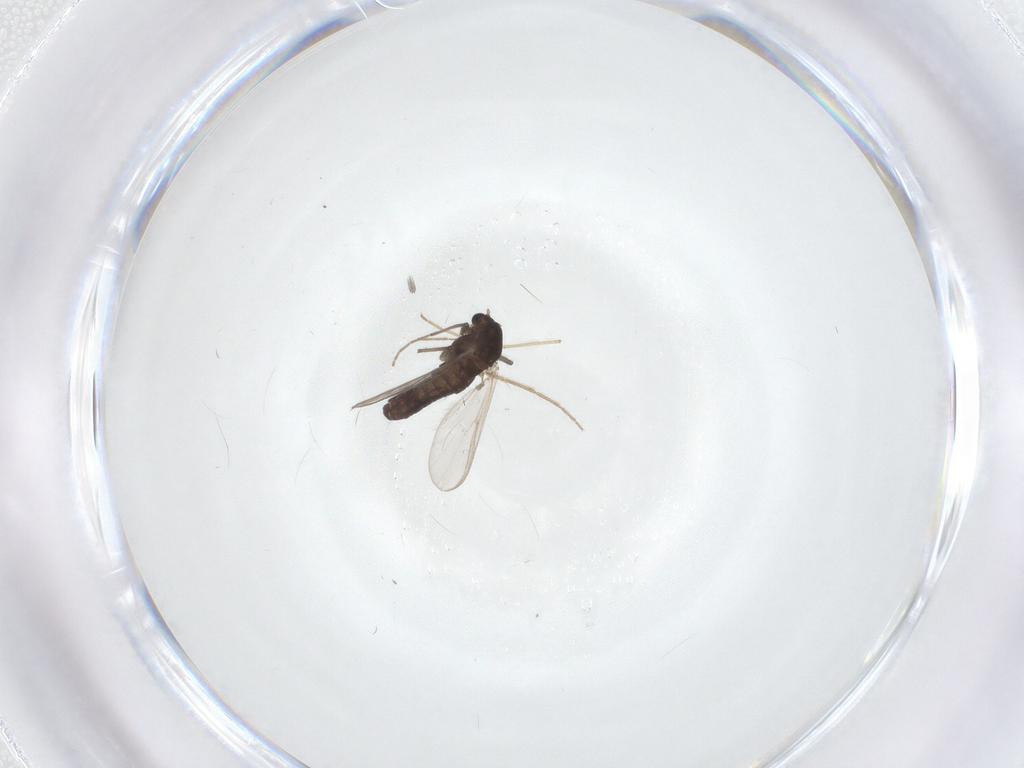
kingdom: Animalia
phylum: Arthropoda
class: Insecta
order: Diptera
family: Chironomidae
